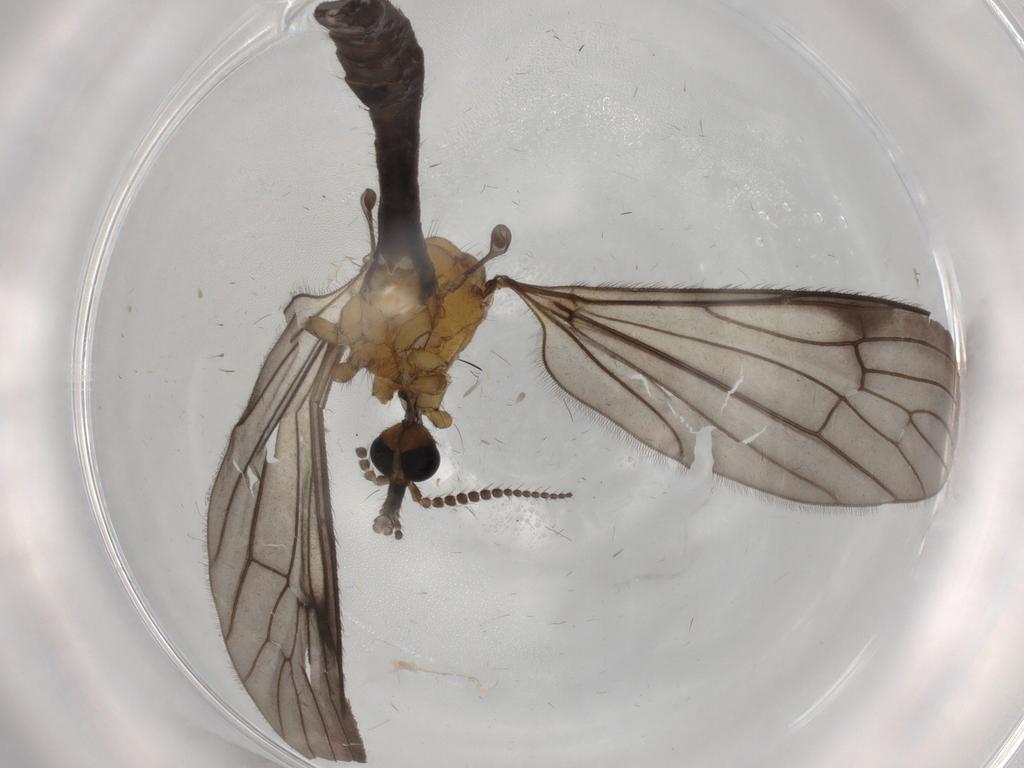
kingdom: Animalia
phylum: Arthropoda
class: Insecta
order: Diptera
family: Limoniidae
